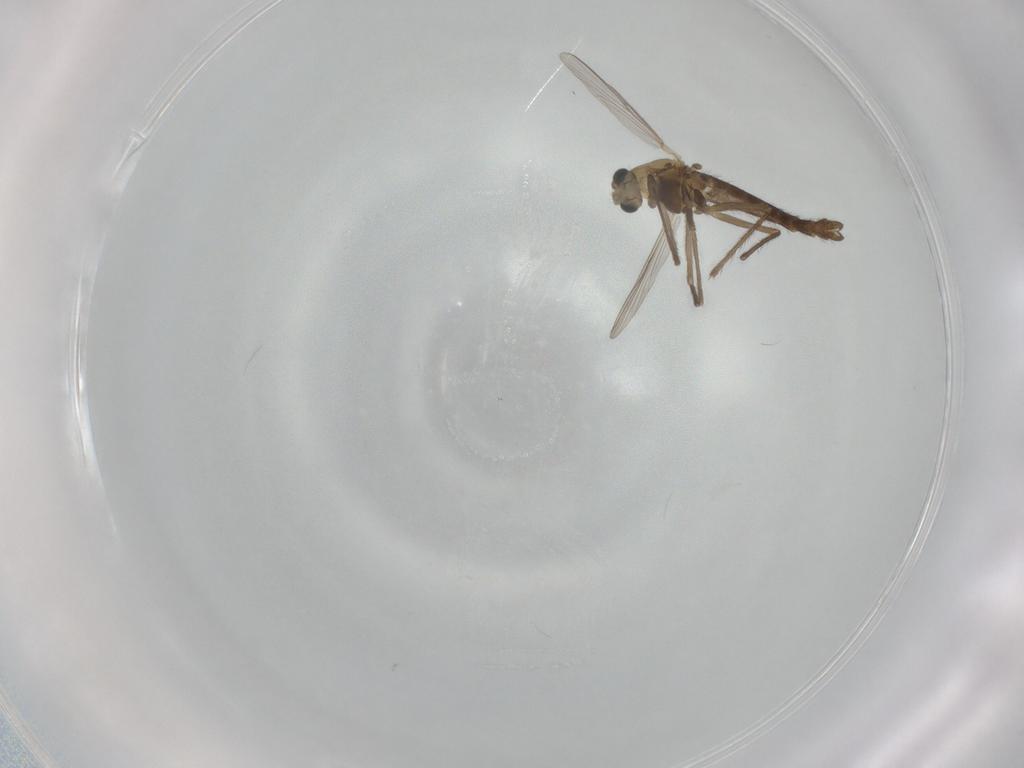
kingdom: Animalia
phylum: Arthropoda
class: Insecta
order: Diptera
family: Chironomidae
